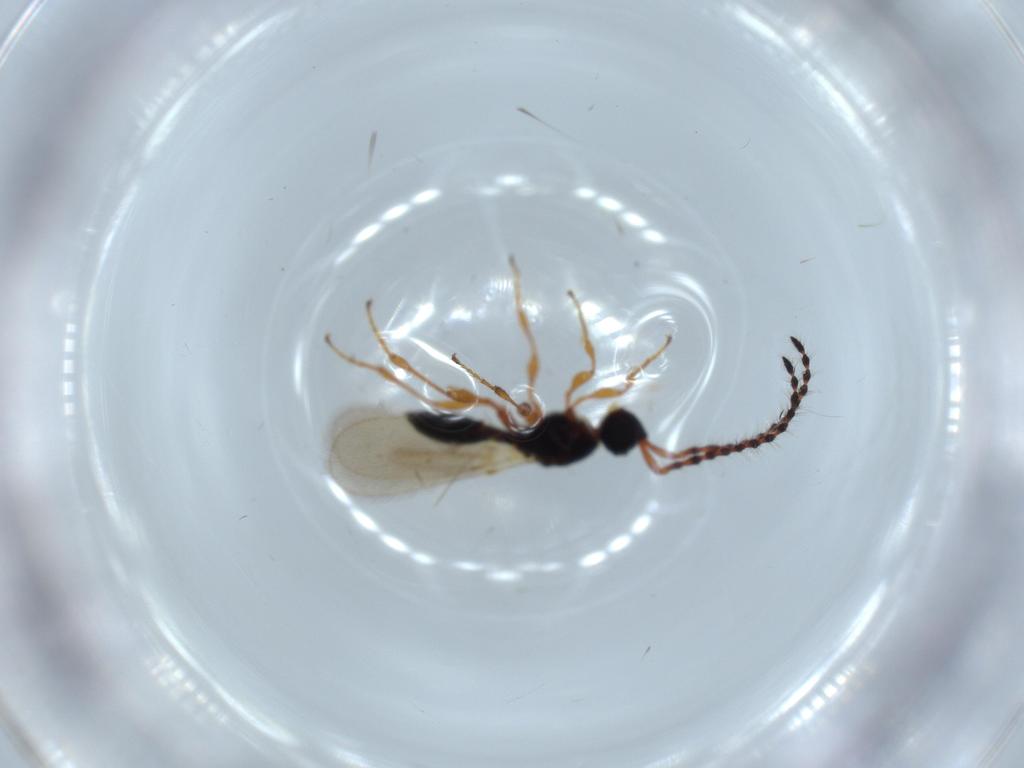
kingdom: Animalia
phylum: Arthropoda
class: Insecta
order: Hymenoptera
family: Diapriidae
